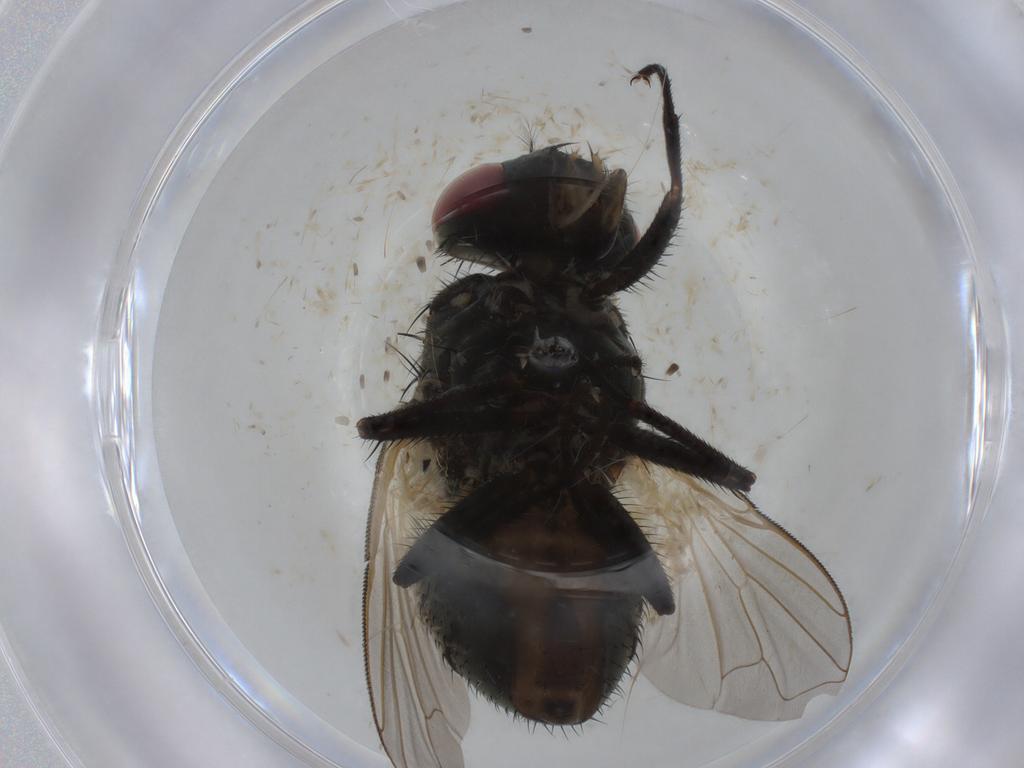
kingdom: Animalia
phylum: Arthropoda
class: Insecta
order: Diptera
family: Muscidae
